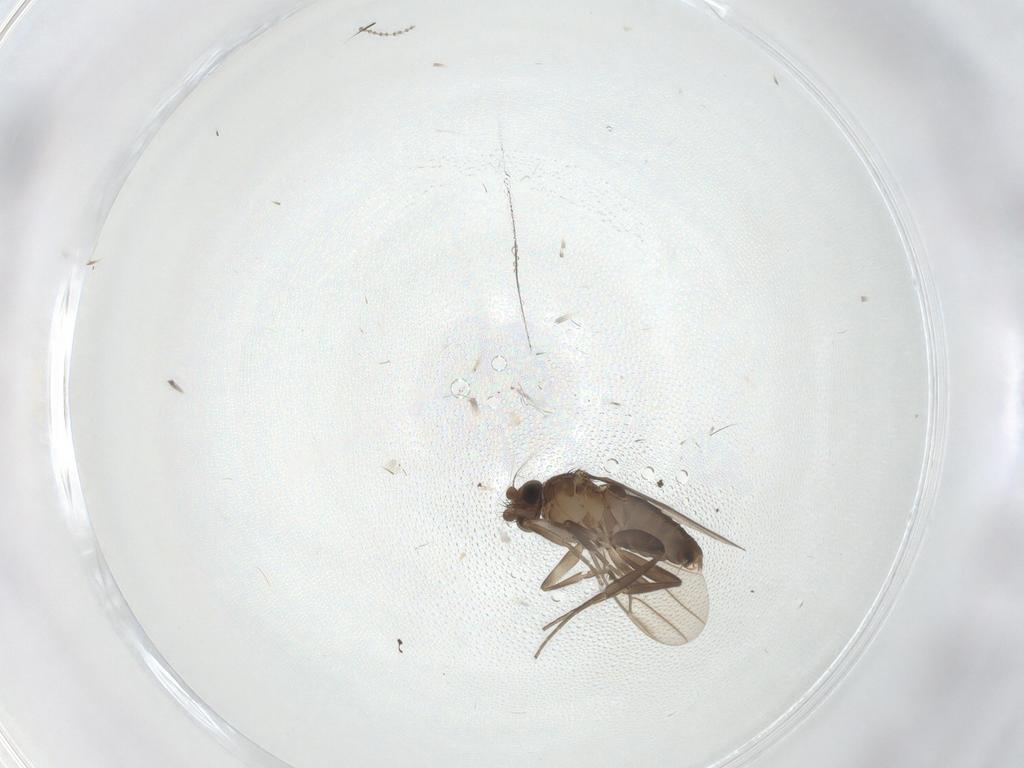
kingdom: Animalia
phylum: Arthropoda
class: Insecta
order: Diptera
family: Phoridae
